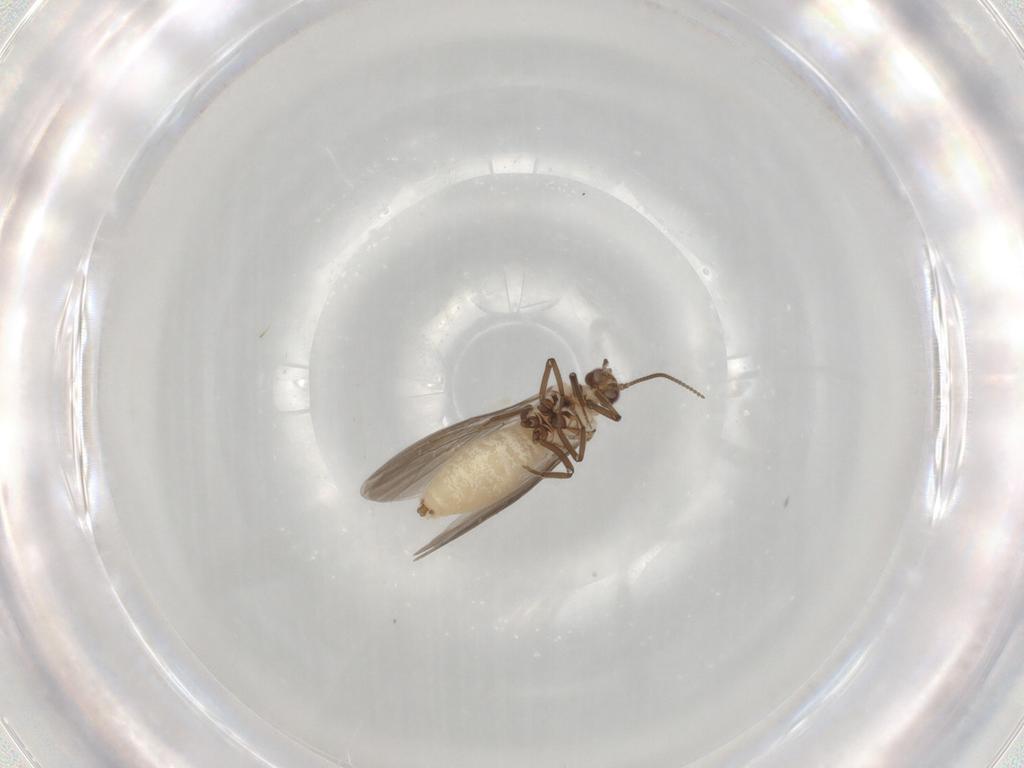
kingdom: Animalia
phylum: Arthropoda
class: Insecta
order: Neuroptera
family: Coniopterygidae
